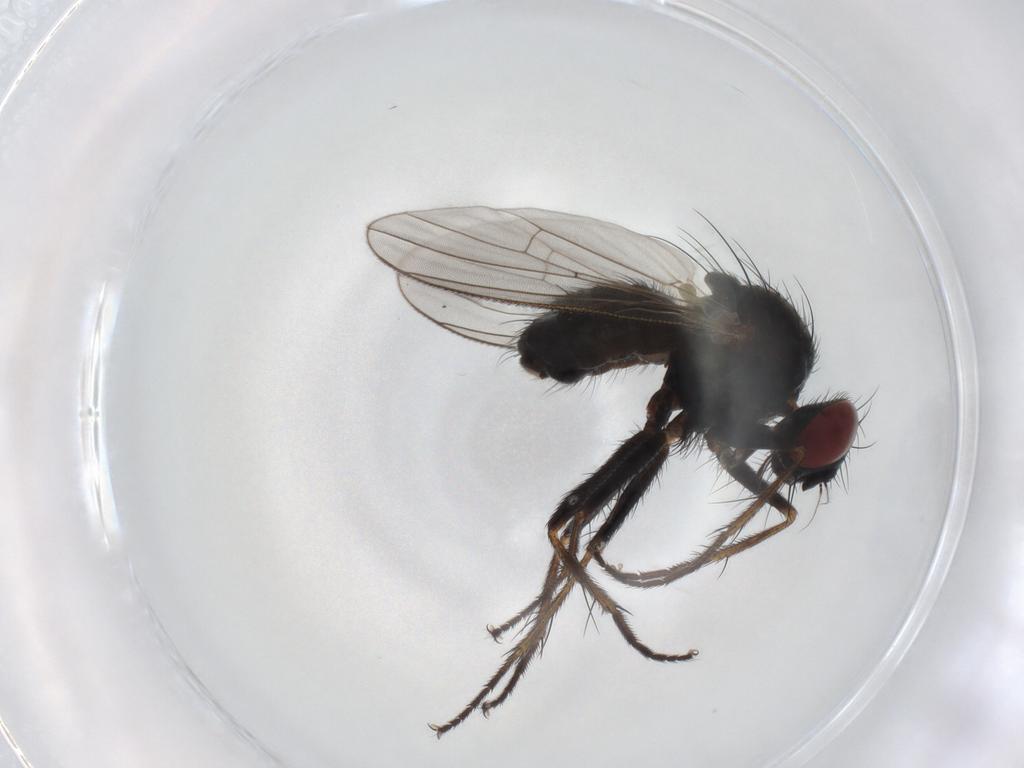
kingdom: Animalia
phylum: Arthropoda
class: Insecta
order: Diptera
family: Muscidae
